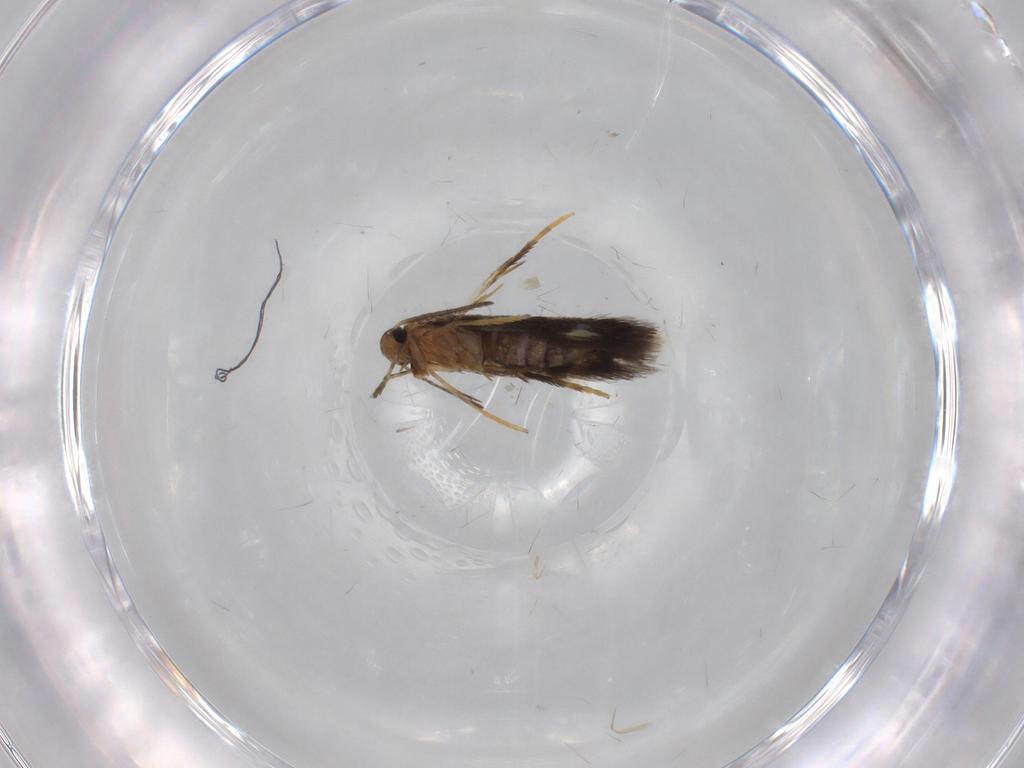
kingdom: Animalia
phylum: Arthropoda
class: Insecta
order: Lepidoptera
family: Heliozelidae
